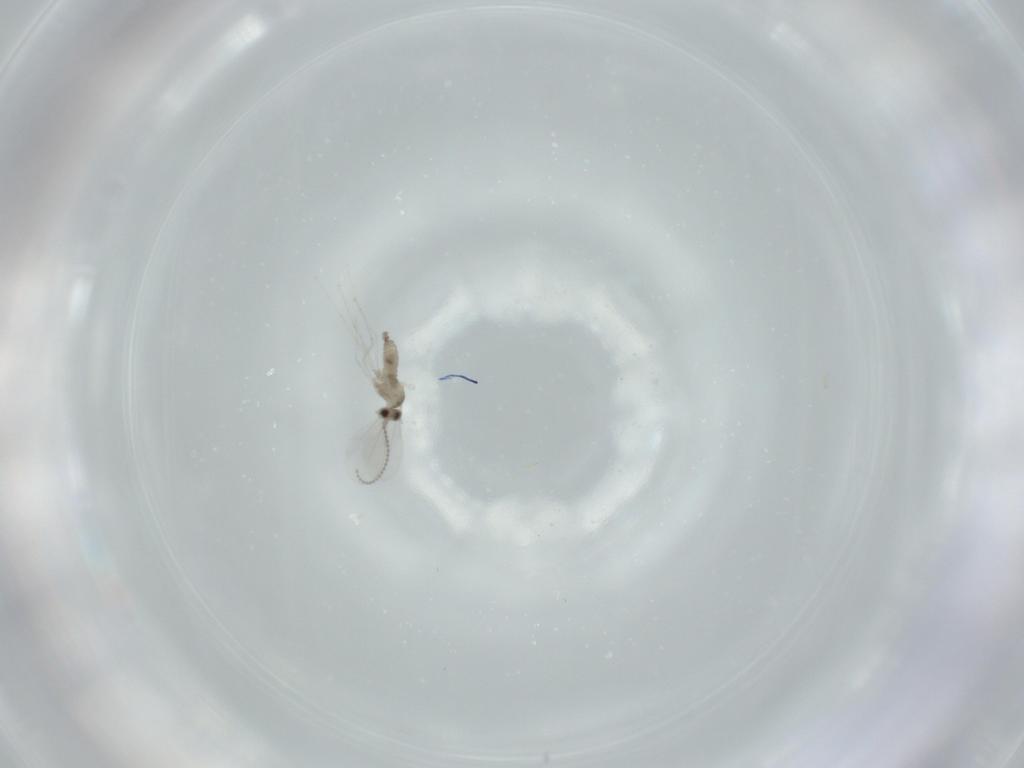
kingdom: Animalia
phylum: Arthropoda
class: Insecta
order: Diptera
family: Cecidomyiidae
